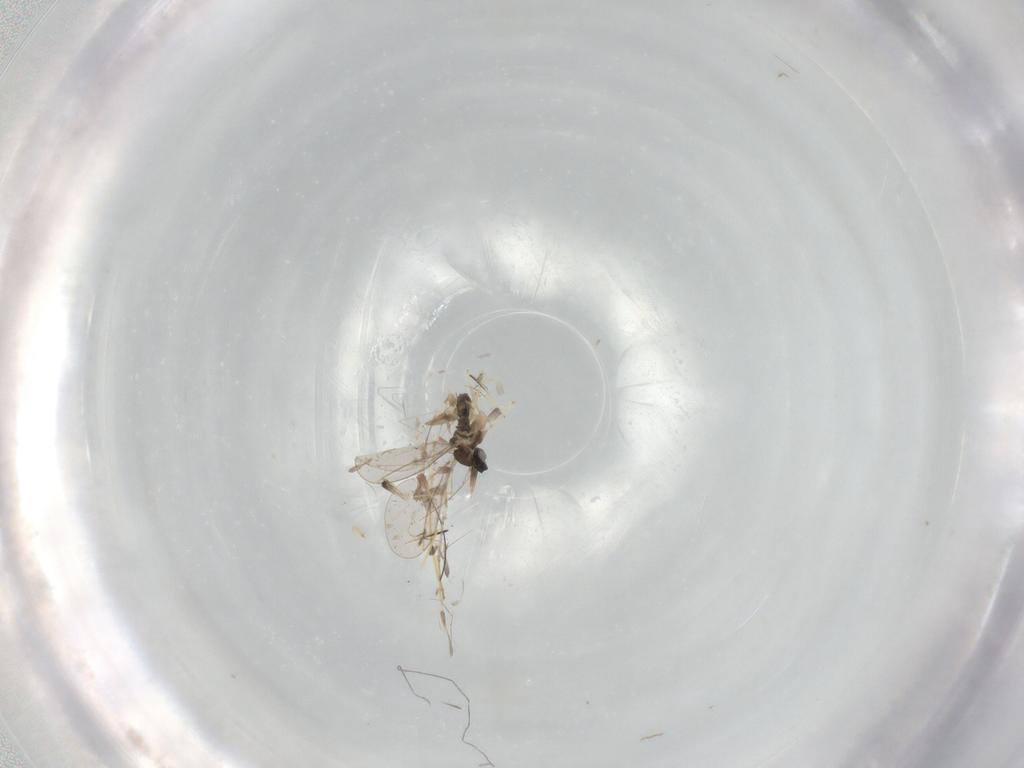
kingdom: Animalia
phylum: Arthropoda
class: Insecta
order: Diptera
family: Cecidomyiidae
